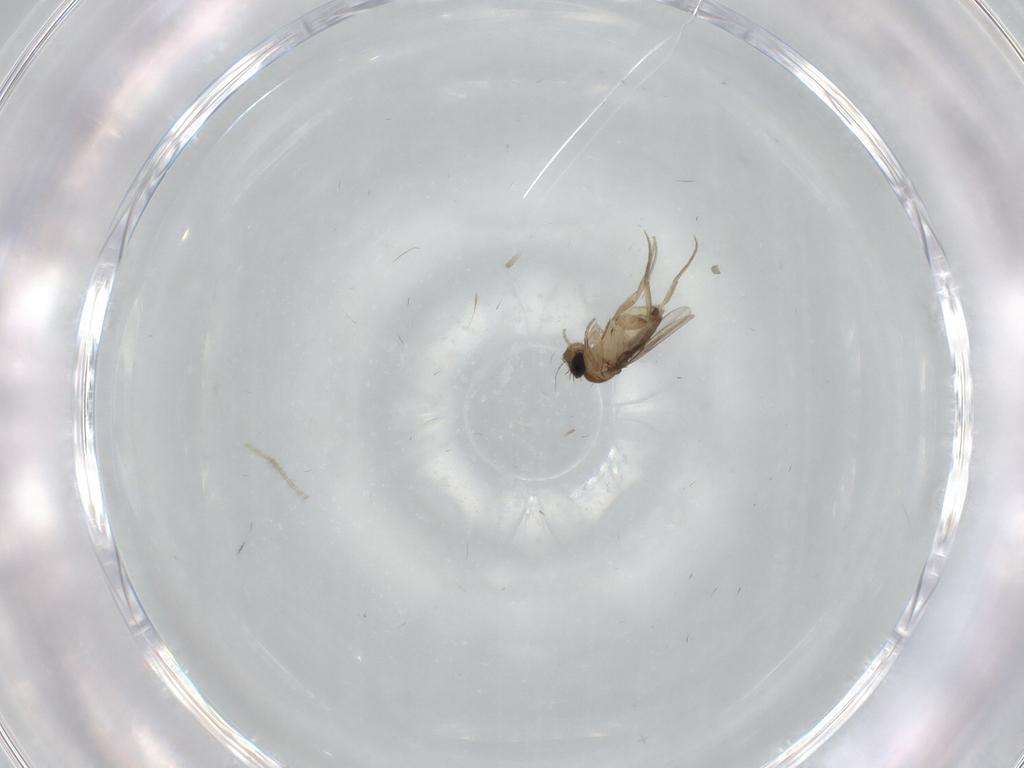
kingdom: Animalia
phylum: Arthropoda
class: Insecta
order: Diptera
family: Phoridae
